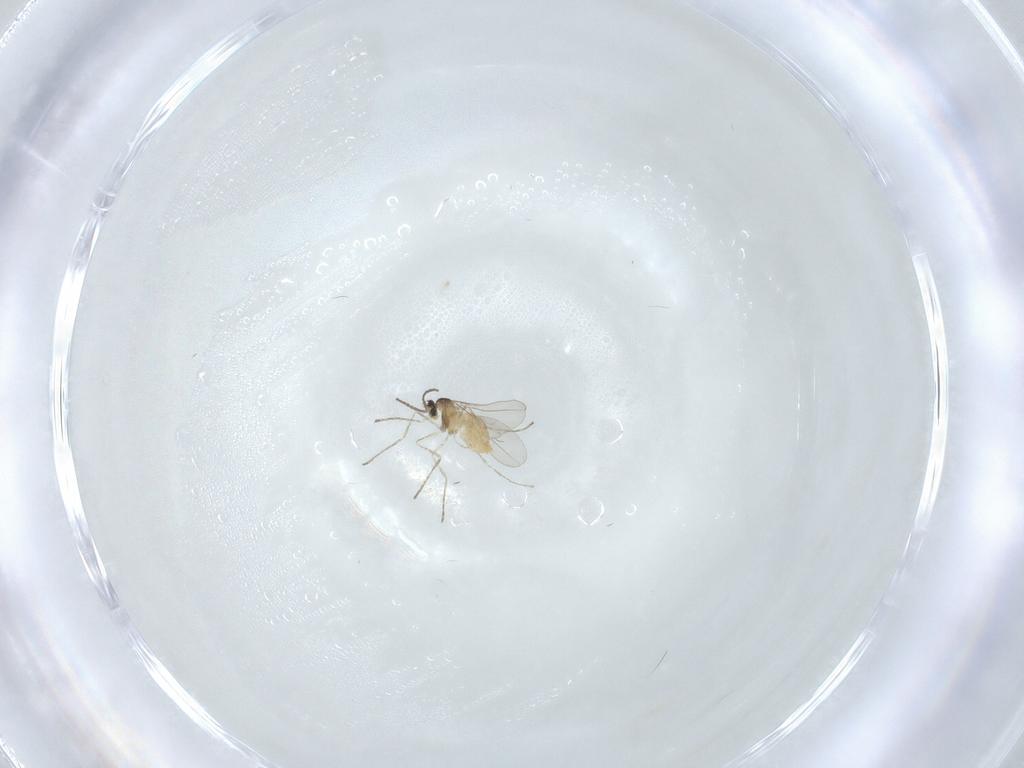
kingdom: Animalia
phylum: Arthropoda
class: Insecta
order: Diptera
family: Cecidomyiidae
